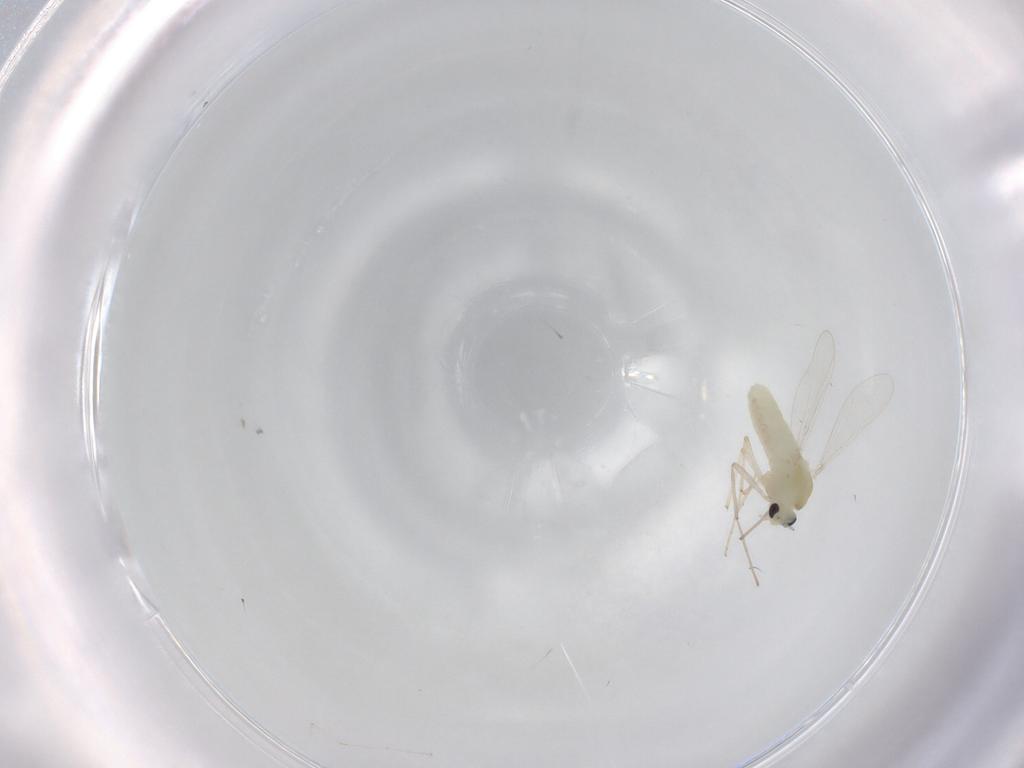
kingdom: Animalia
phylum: Arthropoda
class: Insecta
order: Diptera
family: Chironomidae
